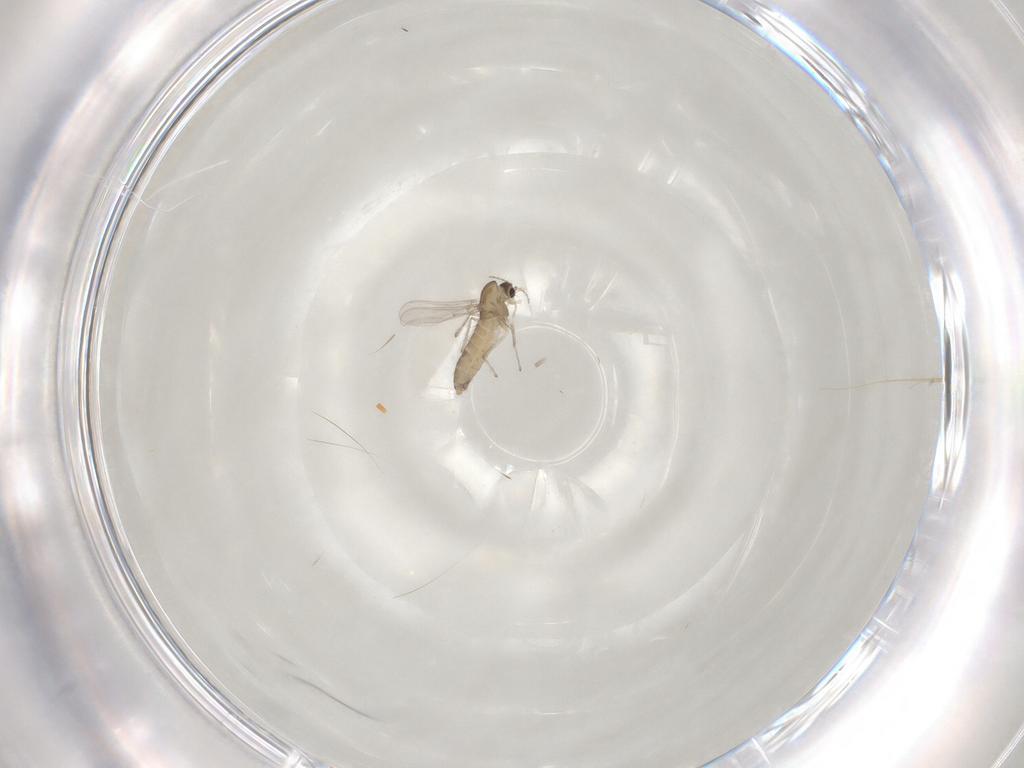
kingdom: Animalia
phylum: Arthropoda
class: Insecta
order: Diptera
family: Chironomidae
